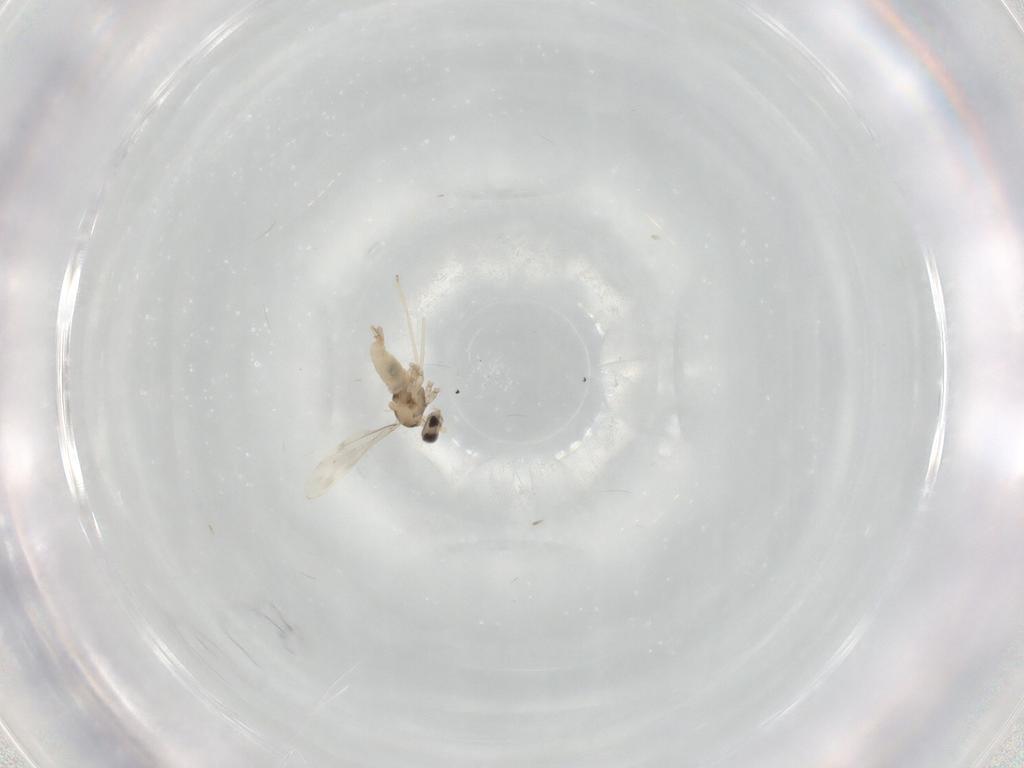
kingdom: Animalia
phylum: Arthropoda
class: Insecta
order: Diptera
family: Cecidomyiidae
